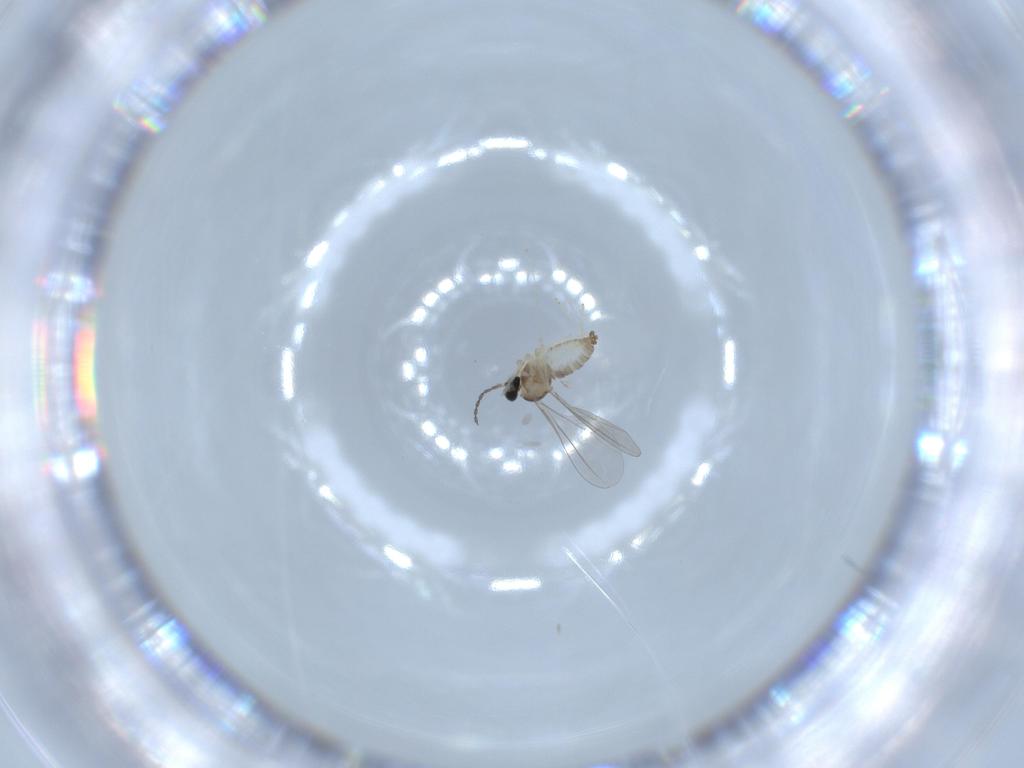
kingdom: Animalia
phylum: Arthropoda
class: Insecta
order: Diptera
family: Cecidomyiidae
